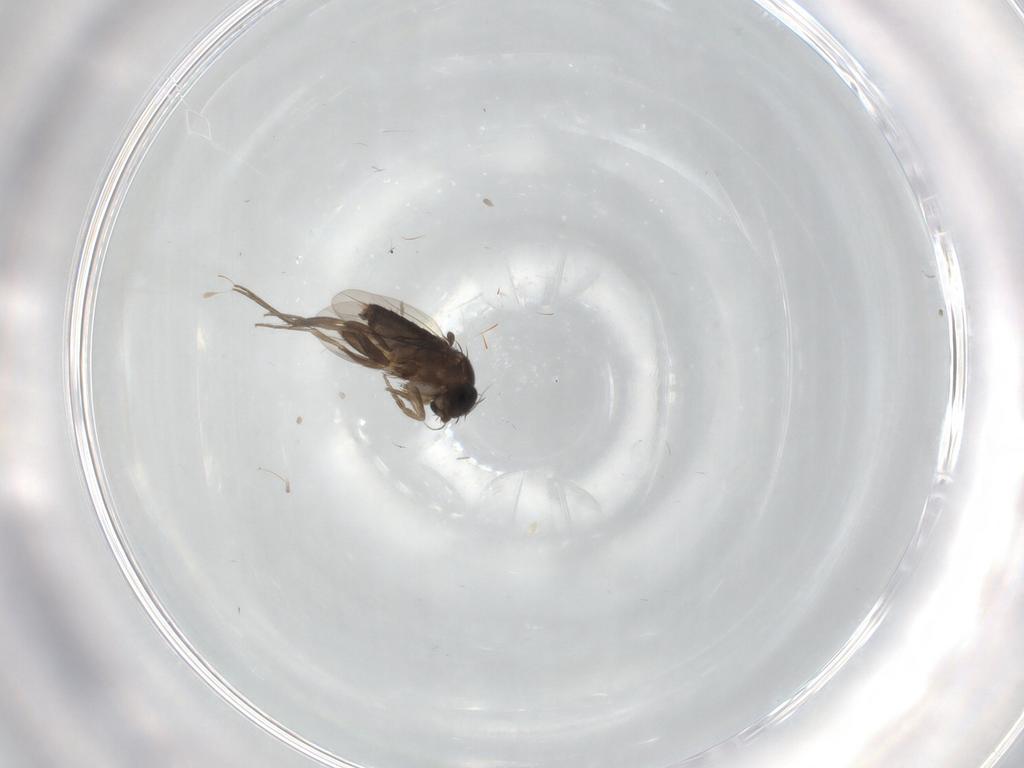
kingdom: Animalia
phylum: Arthropoda
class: Insecta
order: Diptera
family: Phoridae
